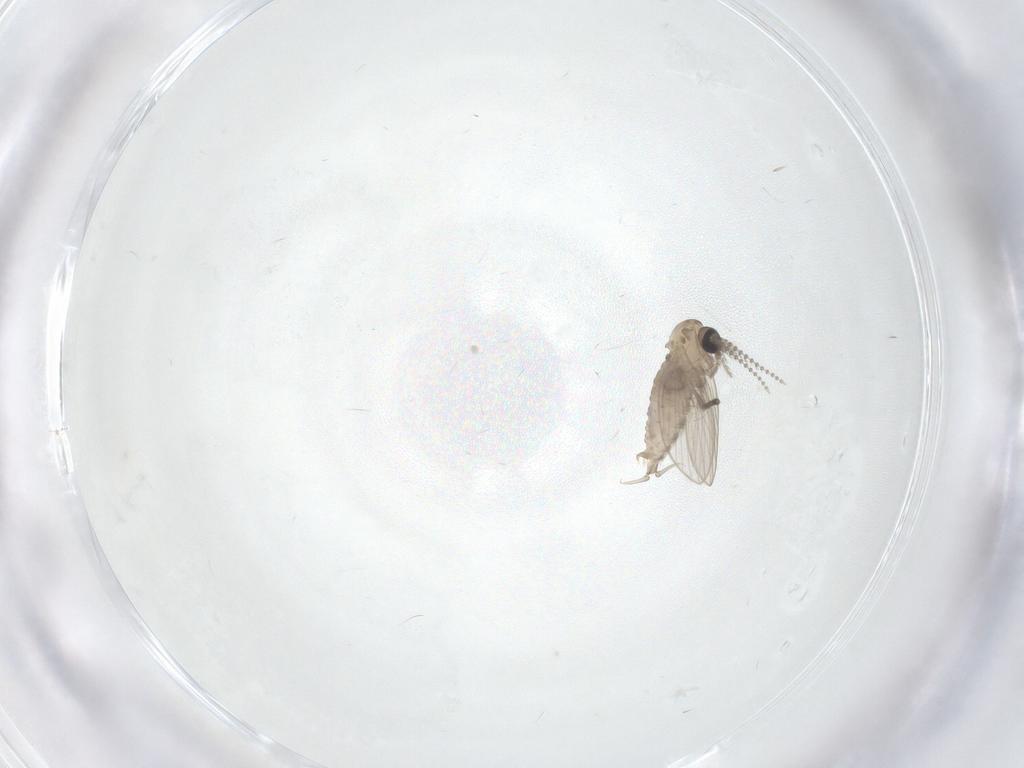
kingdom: Animalia
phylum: Arthropoda
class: Insecta
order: Diptera
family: Psychodidae
